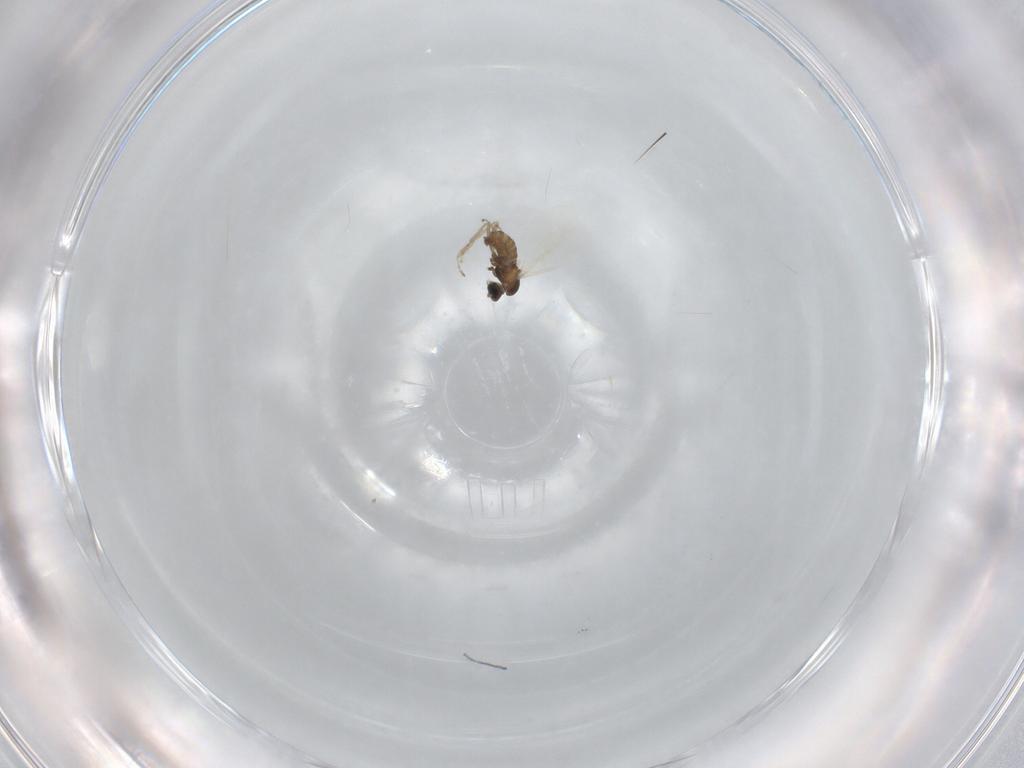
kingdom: Animalia
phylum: Arthropoda
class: Insecta
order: Diptera
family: Cecidomyiidae
